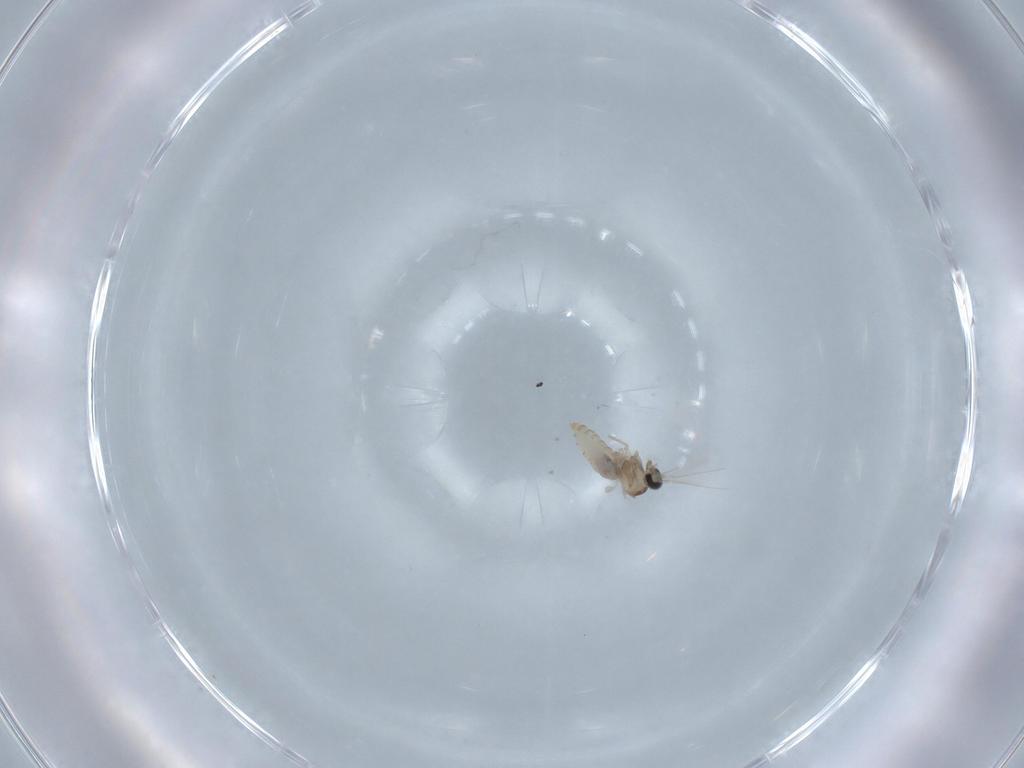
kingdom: Animalia
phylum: Arthropoda
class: Insecta
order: Diptera
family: Cecidomyiidae
